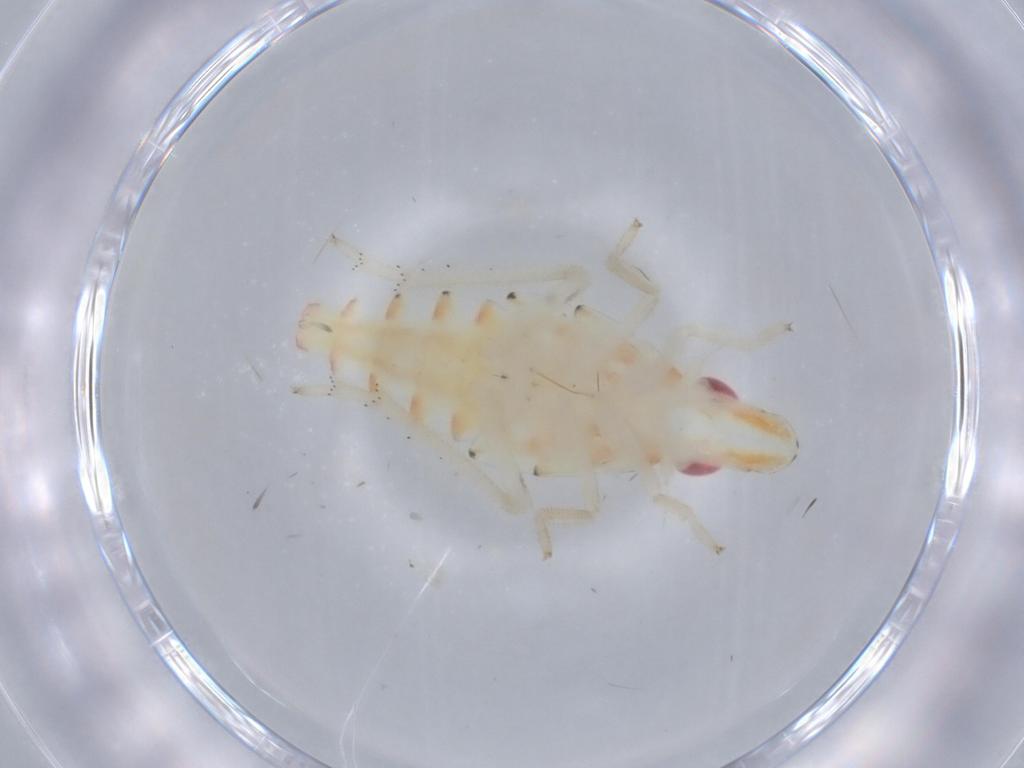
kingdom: Animalia
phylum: Arthropoda
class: Insecta
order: Hemiptera
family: Tropiduchidae
